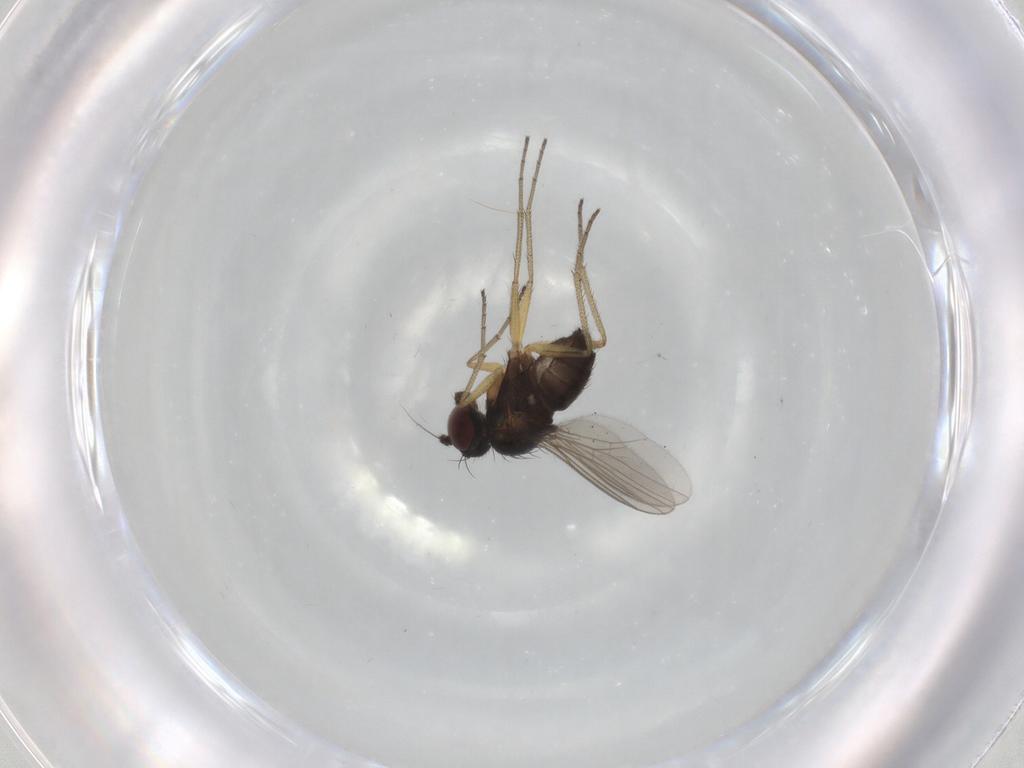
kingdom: Animalia
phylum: Arthropoda
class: Insecta
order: Diptera
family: Dolichopodidae
